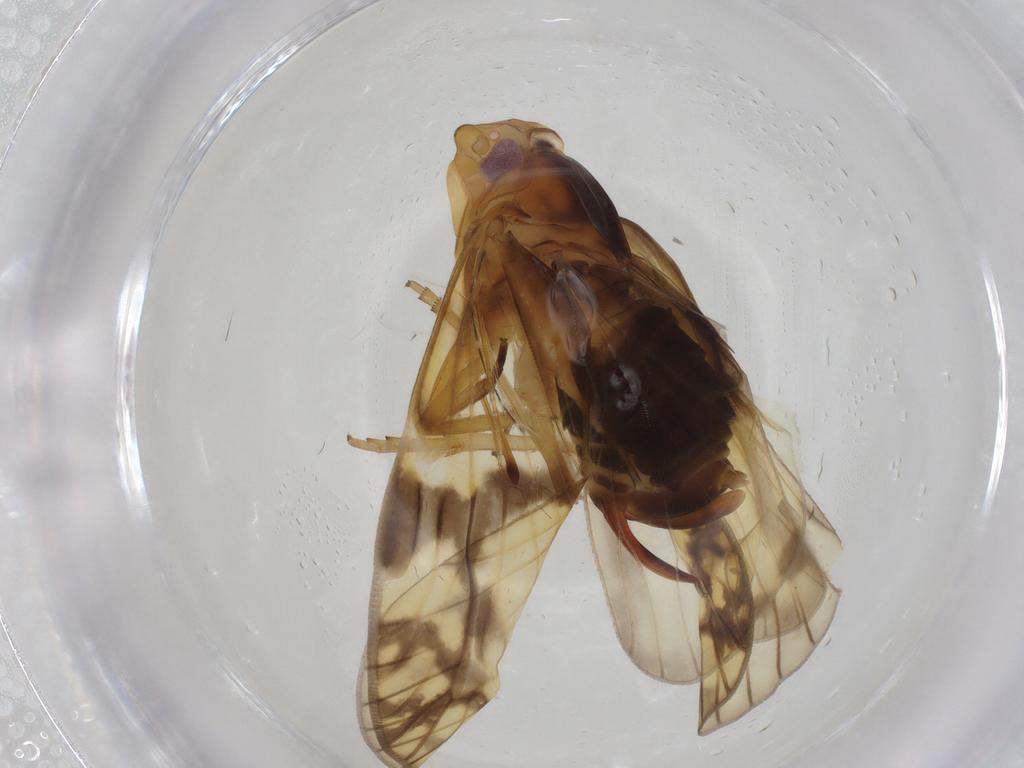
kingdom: Animalia
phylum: Arthropoda
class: Insecta
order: Hemiptera
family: Cixiidae
